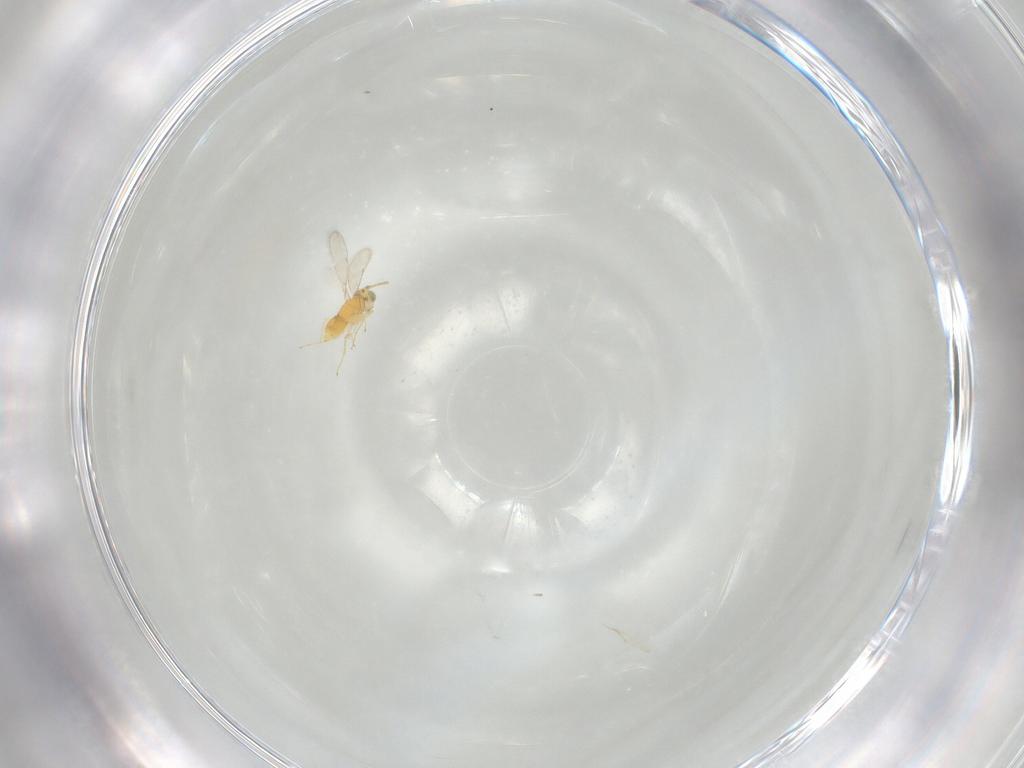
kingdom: Animalia
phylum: Arthropoda
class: Insecta
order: Hymenoptera
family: Aphelinidae
